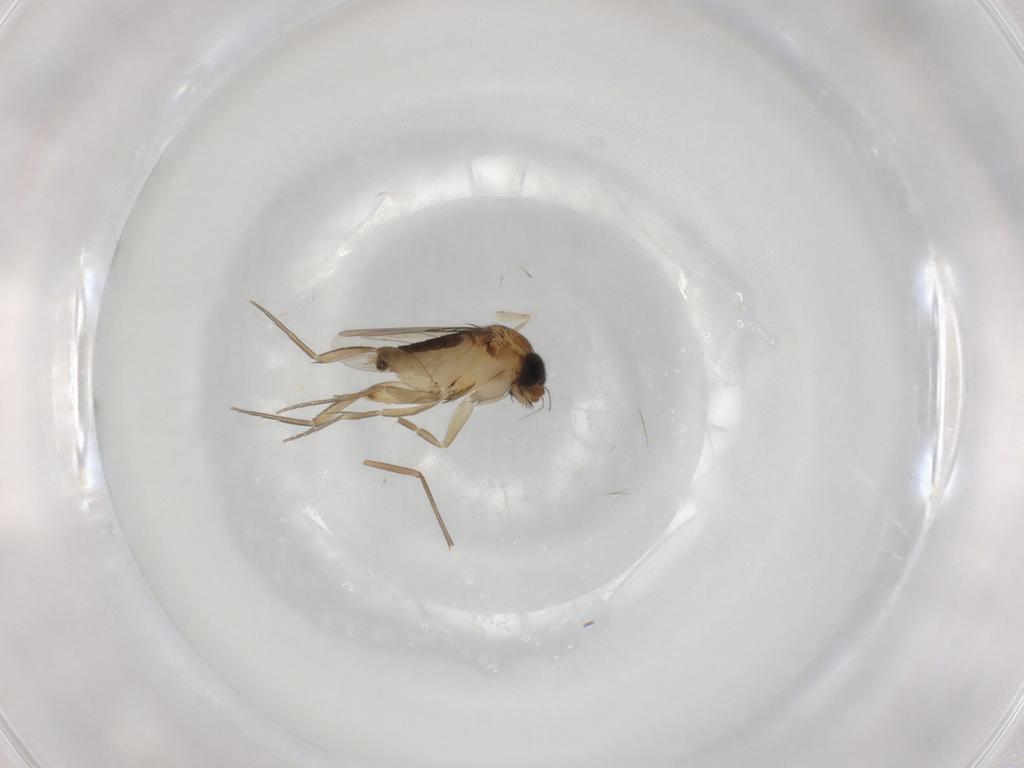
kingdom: Animalia
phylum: Arthropoda
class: Insecta
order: Diptera
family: Phoridae
